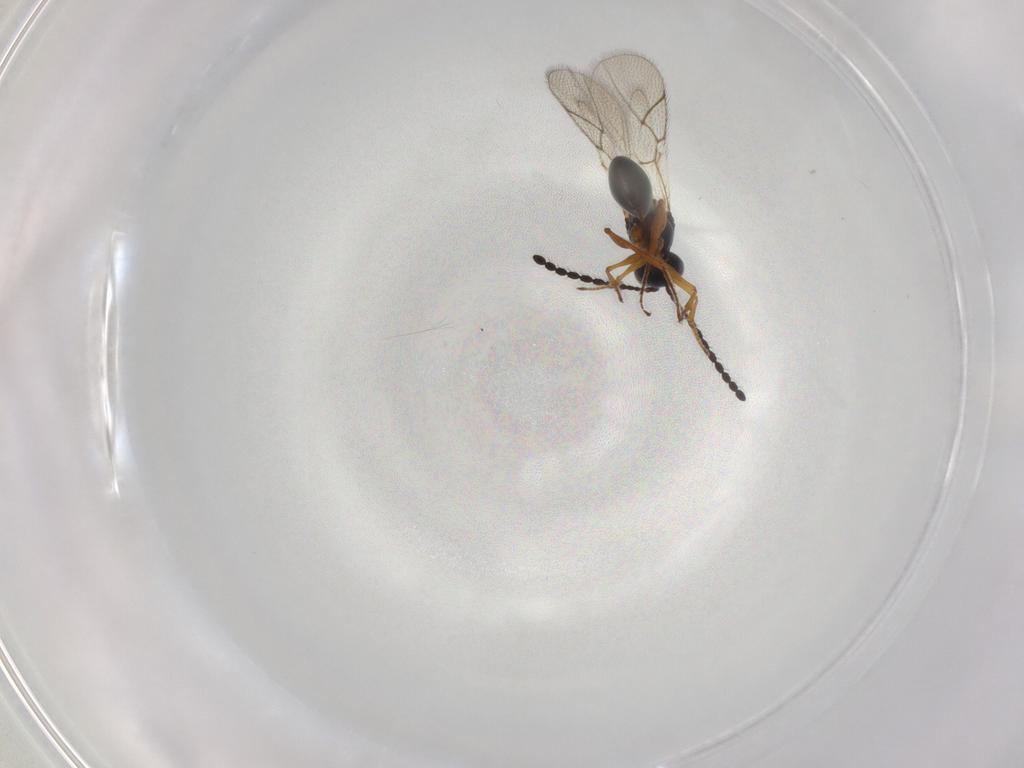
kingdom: Animalia
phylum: Arthropoda
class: Insecta
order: Hymenoptera
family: Figitidae
